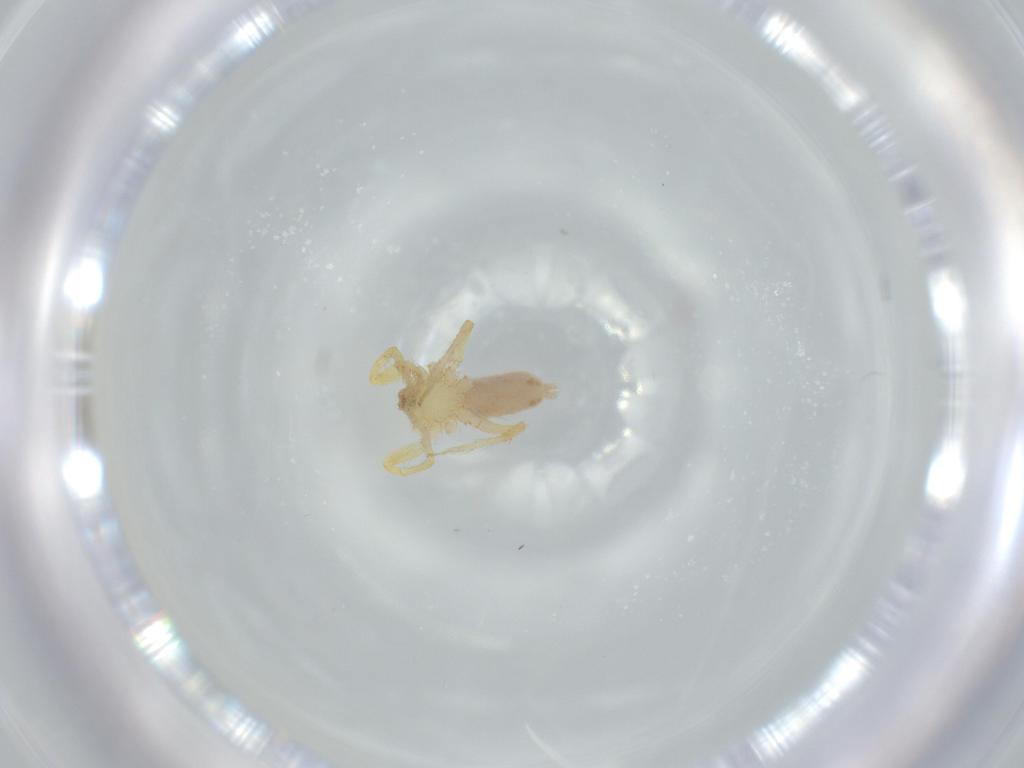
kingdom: Animalia
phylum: Arthropoda
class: Arachnida
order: Araneae
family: Oonopidae
